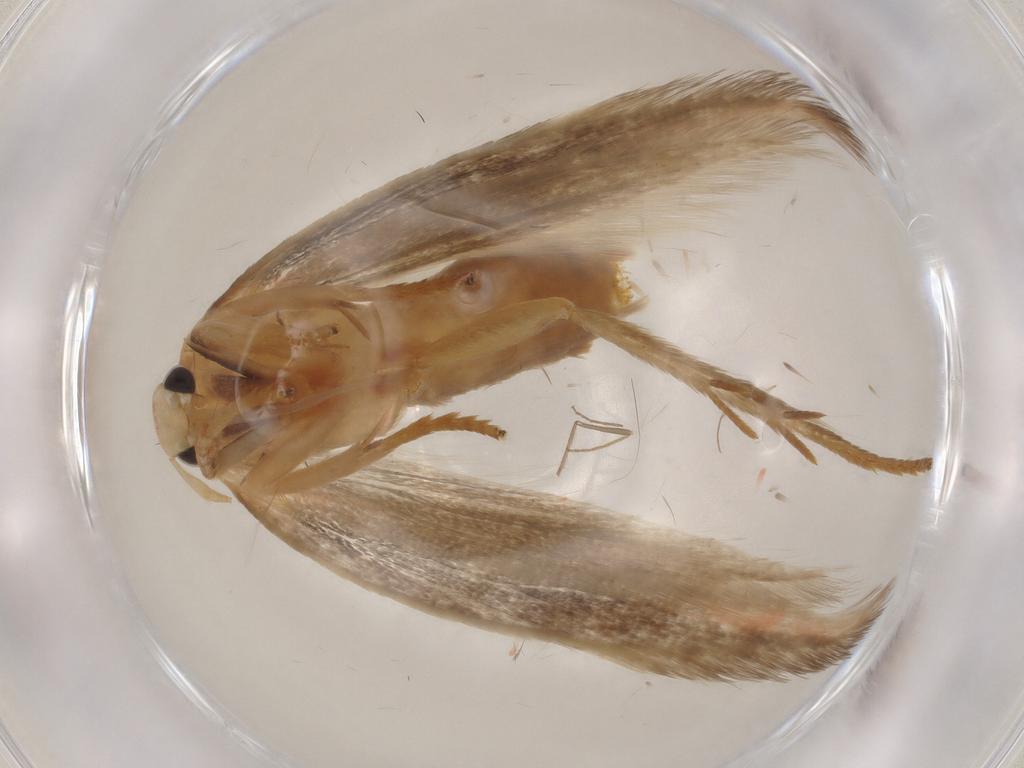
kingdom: Animalia
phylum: Arthropoda
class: Insecta
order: Lepidoptera
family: Geometridae
